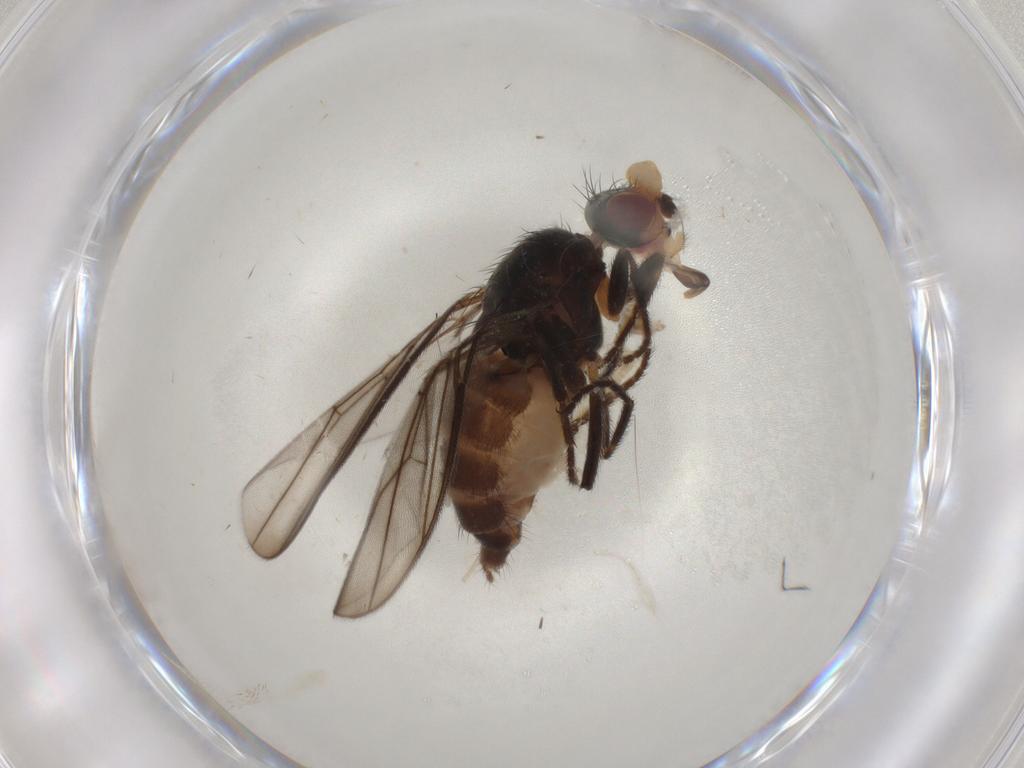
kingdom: Animalia
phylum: Arthropoda
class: Insecta
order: Diptera
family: Chloropidae
